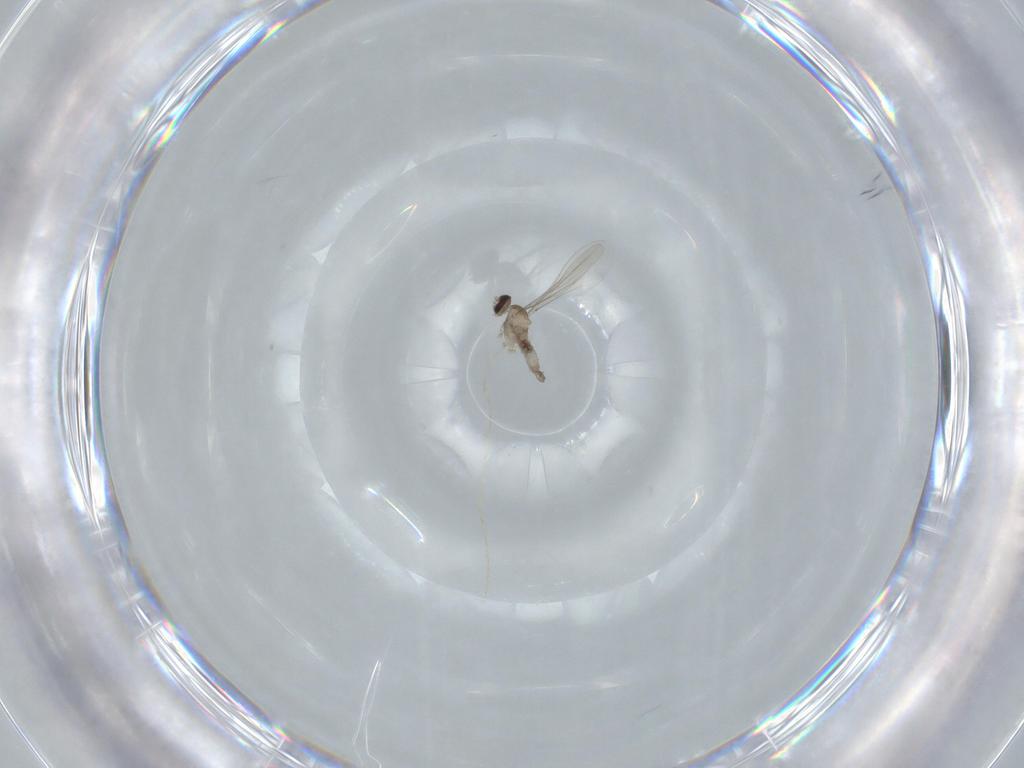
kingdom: Animalia
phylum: Arthropoda
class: Insecta
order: Diptera
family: Cecidomyiidae
